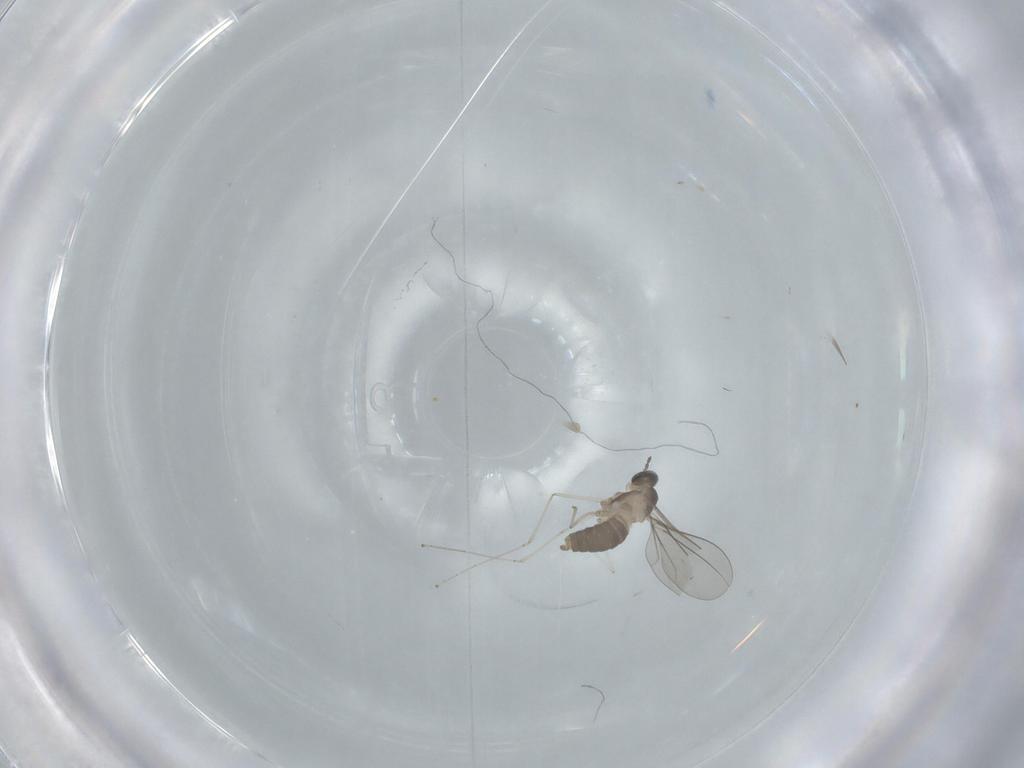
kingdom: Animalia
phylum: Arthropoda
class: Insecta
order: Diptera
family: Cecidomyiidae
